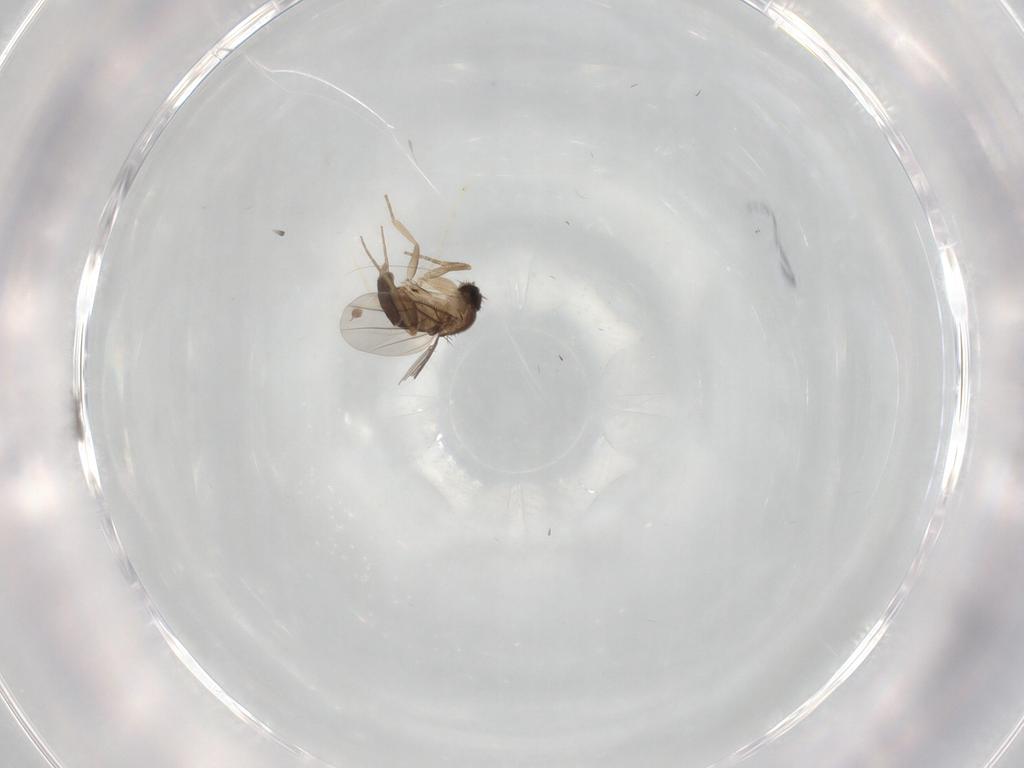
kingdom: Animalia
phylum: Arthropoda
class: Insecta
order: Diptera
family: Ceratopogonidae
